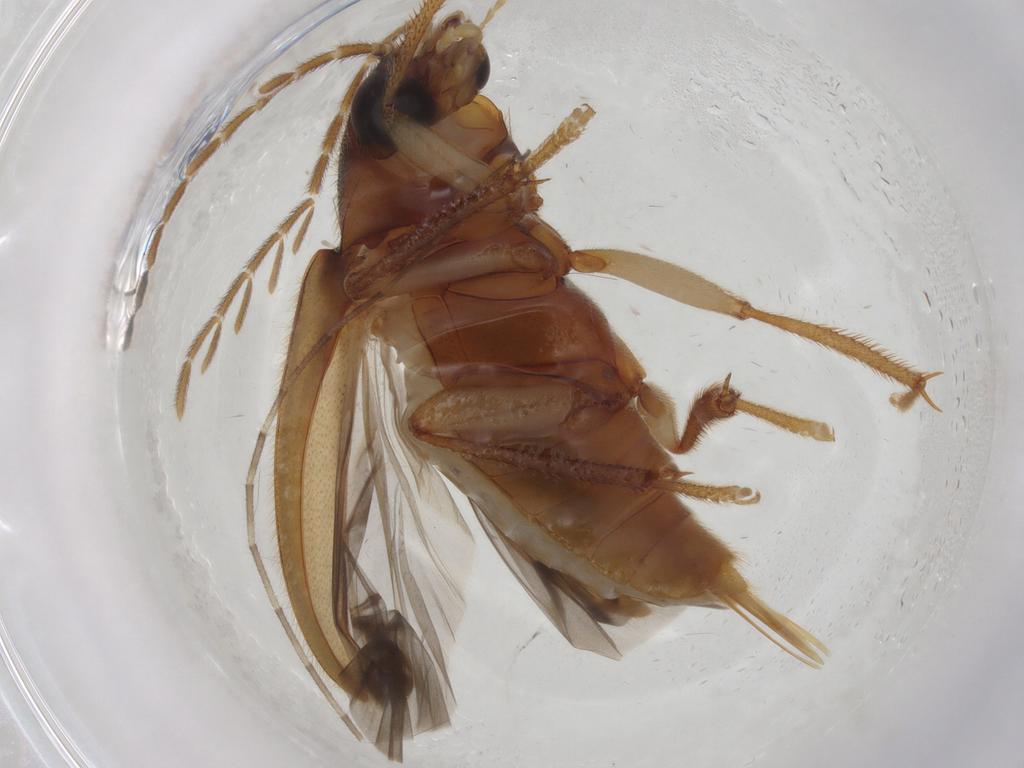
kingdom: Animalia
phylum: Arthropoda
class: Insecta
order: Coleoptera
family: Ptilodactylidae
